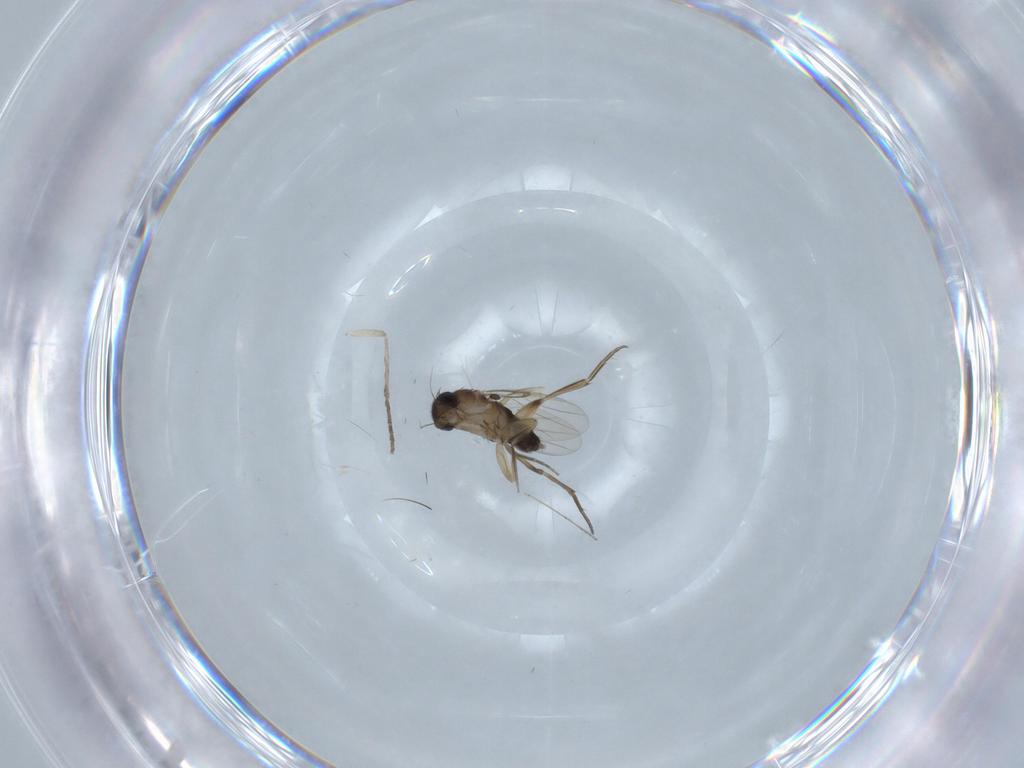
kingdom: Animalia
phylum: Arthropoda
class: Insecta
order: Diptera
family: Cecidomyiidae
